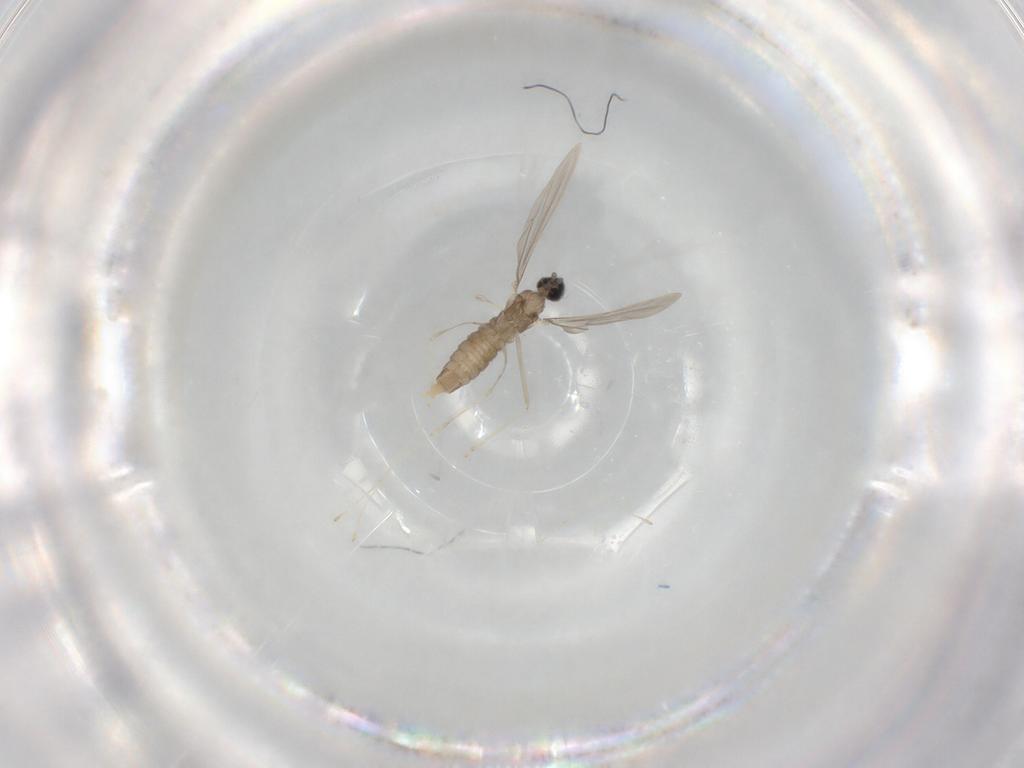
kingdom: Animalia
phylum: Arthropoda
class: Insecta
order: Diptera
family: Cecidomyiidae
